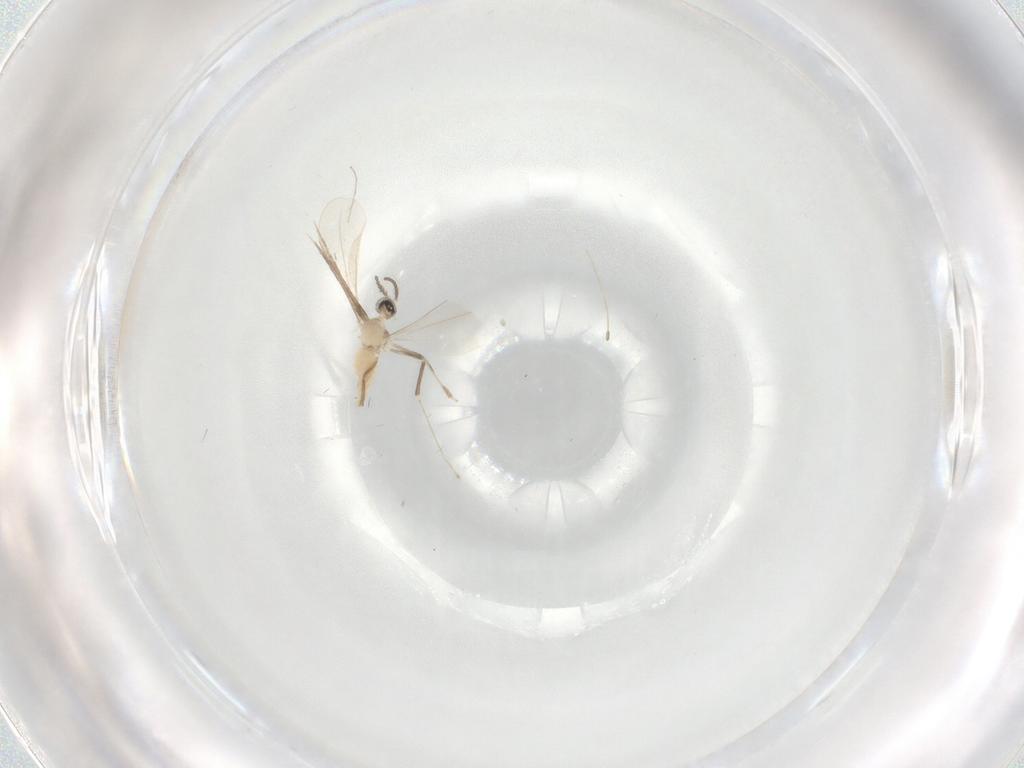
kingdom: Animalia
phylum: Arthropoda
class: Insecta
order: Diptera
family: Cecidomyiidae
